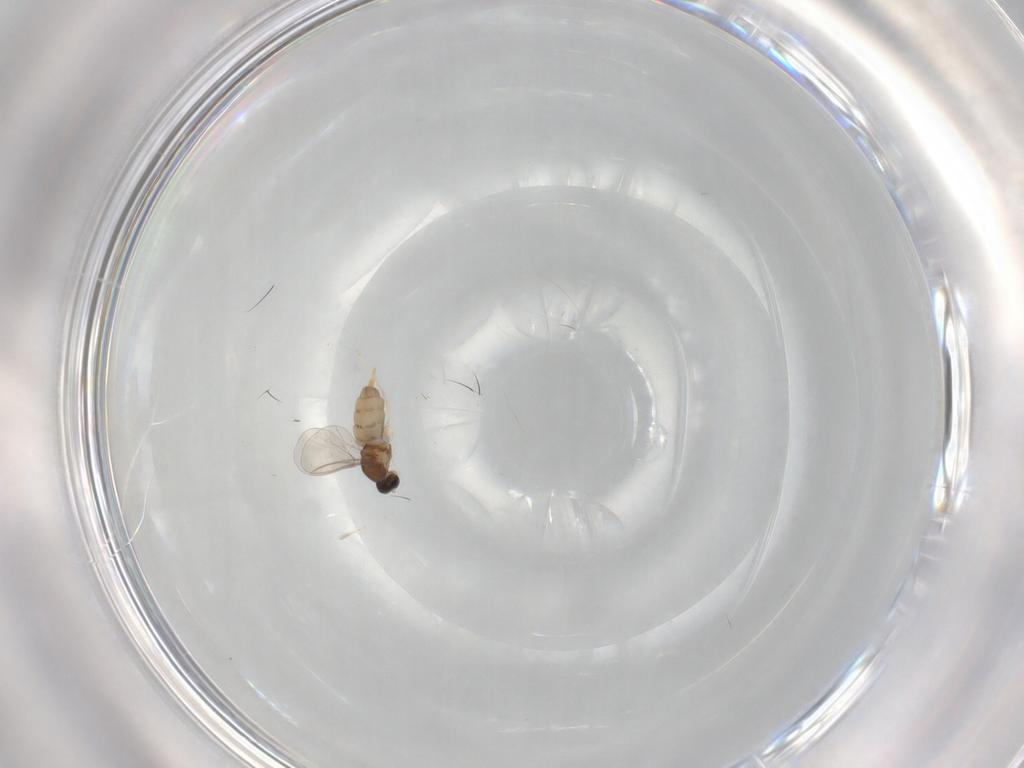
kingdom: Animalia
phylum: Arthropoda
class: Insecta
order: Diptera
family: Cecidomyiidae
